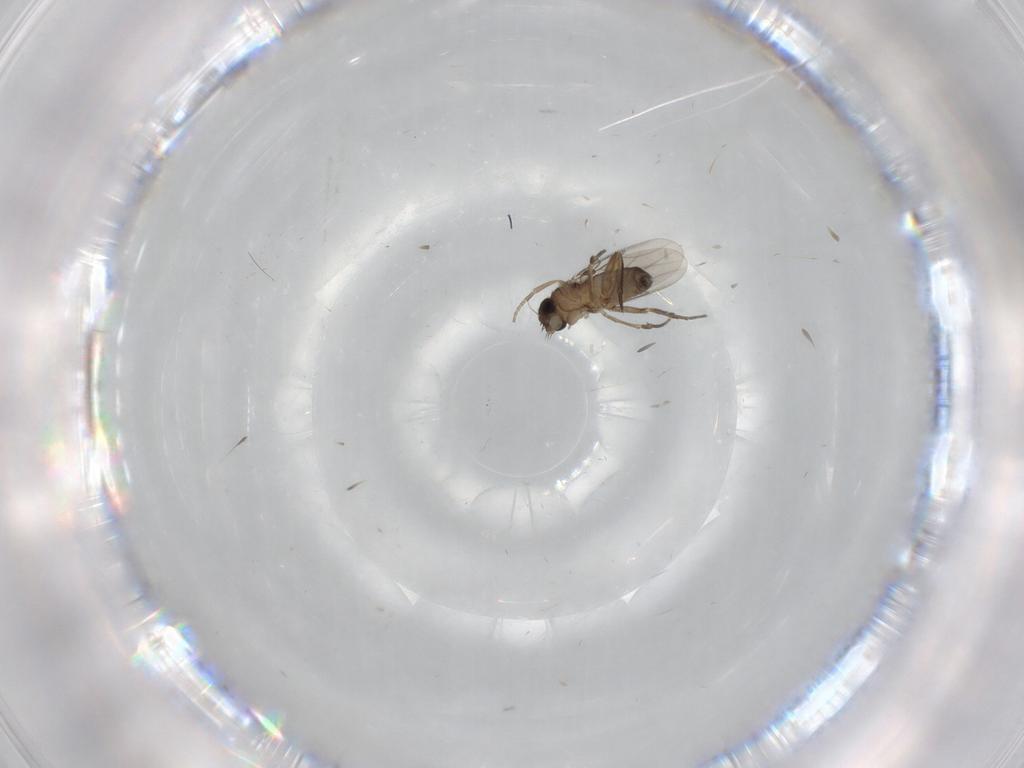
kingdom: Animalia
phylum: Arthropoda
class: Insecta
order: Diptera
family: Phoridae
